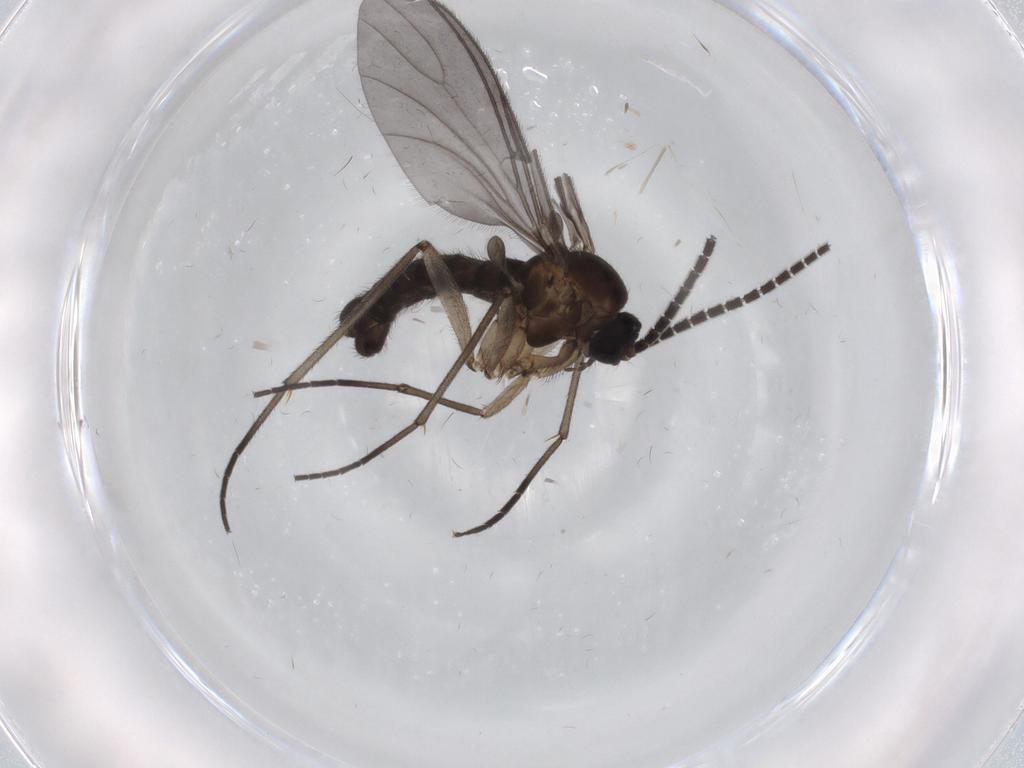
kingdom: Animalia
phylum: Arthropoda
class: Insecta
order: Diptera
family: Sciaridae
